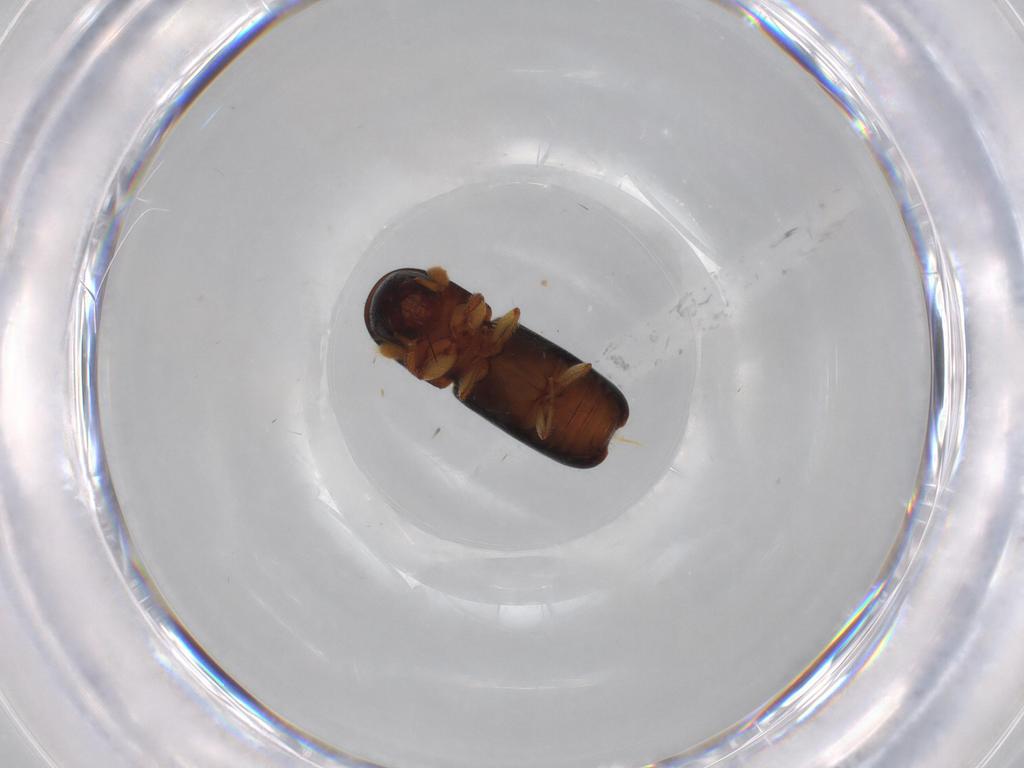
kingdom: Animalia
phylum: Arthropoda
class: Insecta
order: Coleoptera
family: Curculionidae
